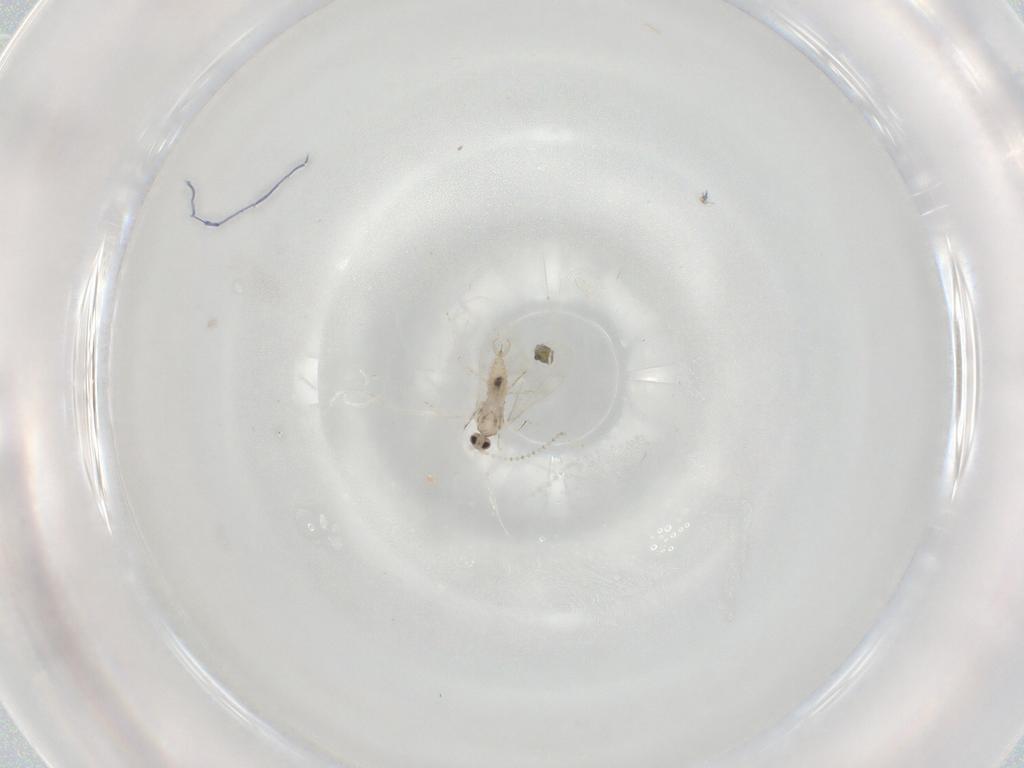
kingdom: Animalia
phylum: Arthropoda
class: Insecta
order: Diptera
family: Cecidomyiidae
